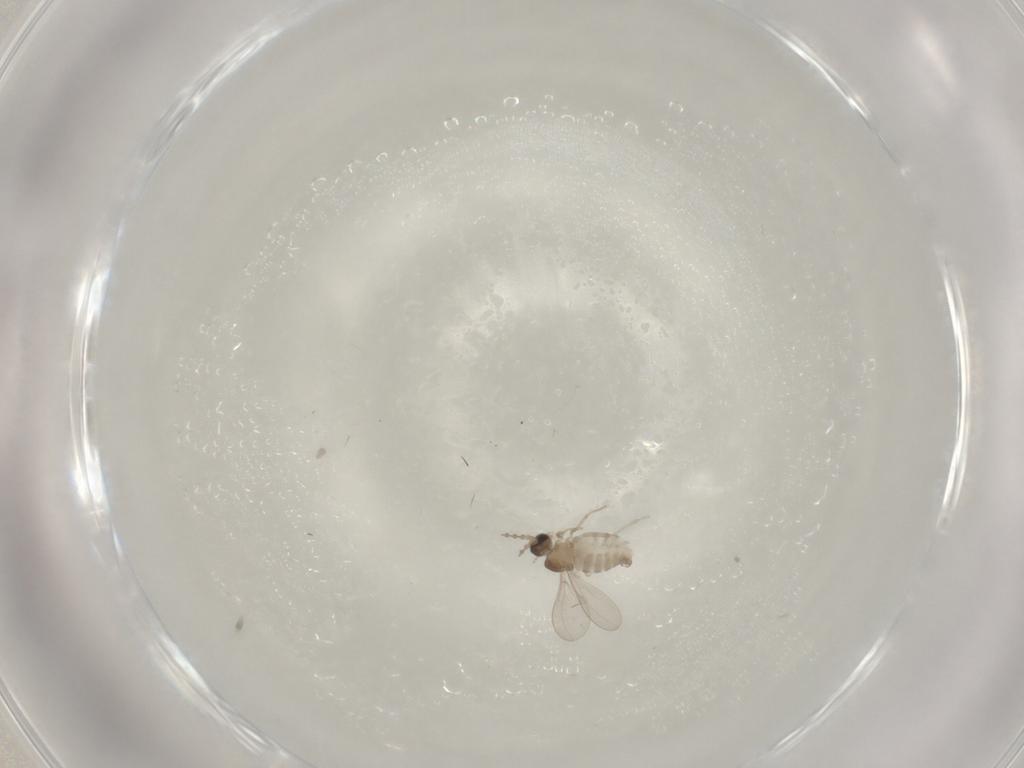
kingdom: Animalia
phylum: Arthropoda
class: Insecta
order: Diptera
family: Cecidomyiidae
